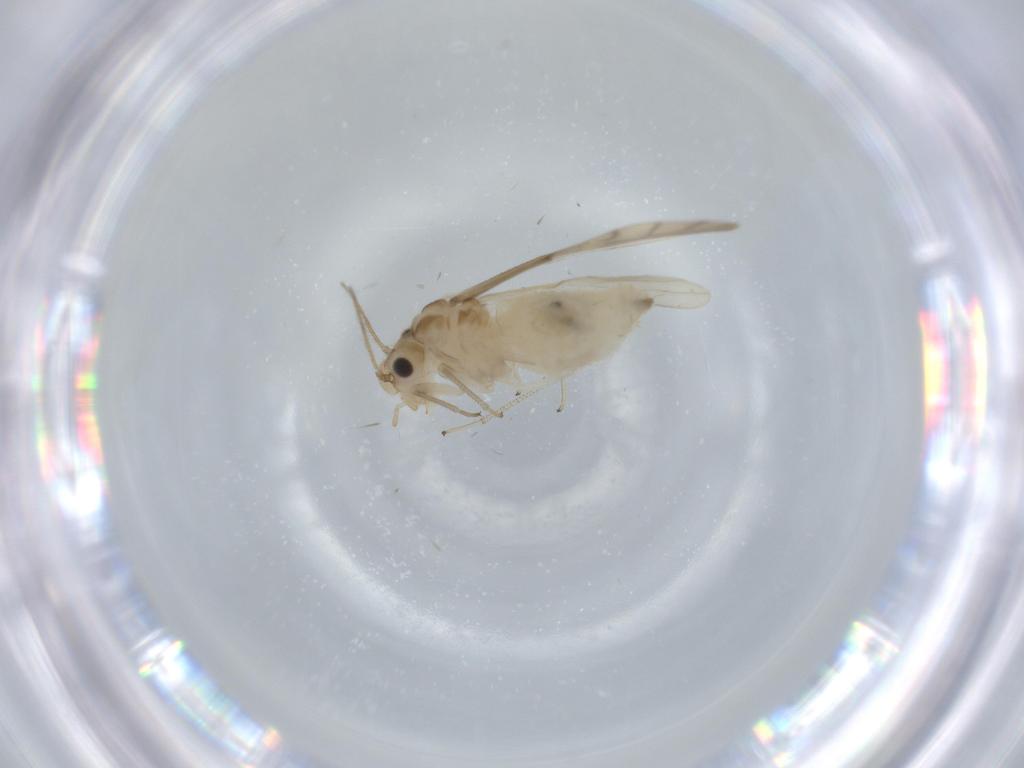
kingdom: Animalia
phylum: Arthropoda
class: Insecta
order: Psocodea
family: Caeciliusidae
